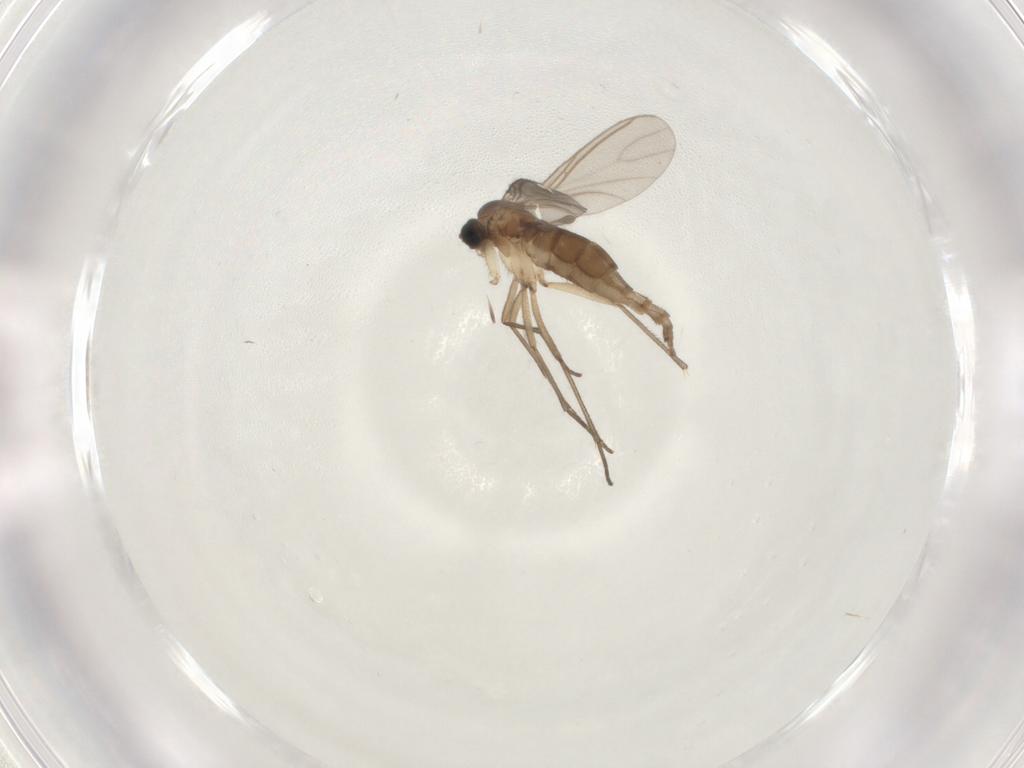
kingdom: Animalia
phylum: Arthropoda
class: Insecta
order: Diptera
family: Sciaridae
